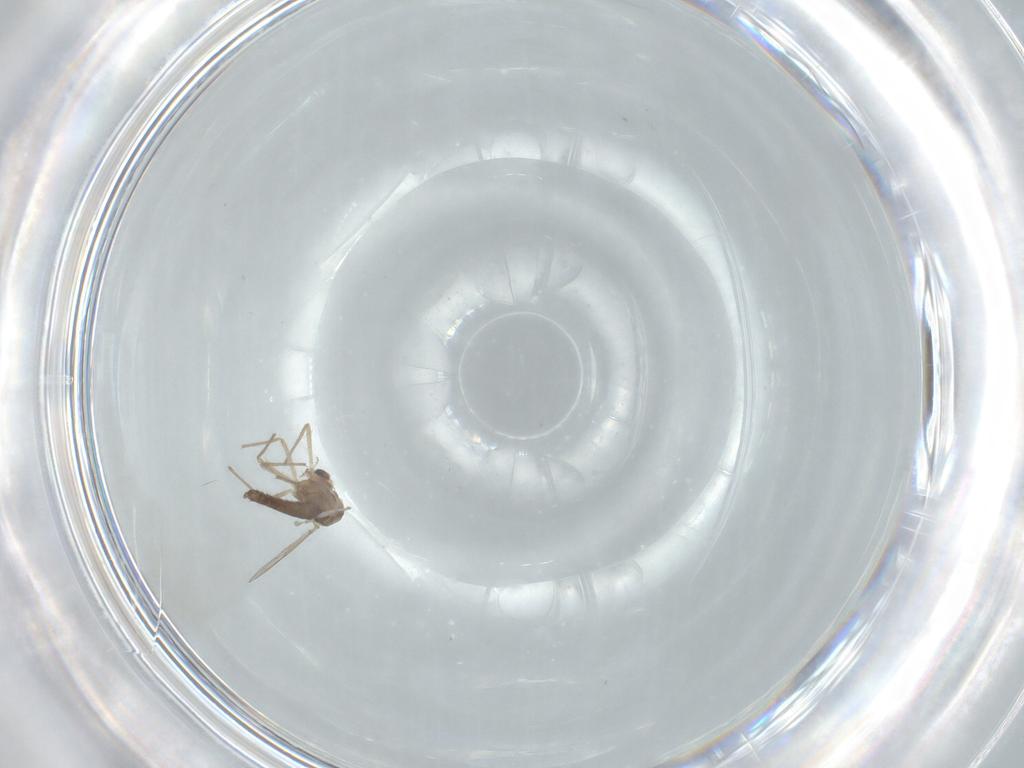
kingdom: Animalia
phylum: Arthropoda
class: Insecta
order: Diptera
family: Chironomidae
